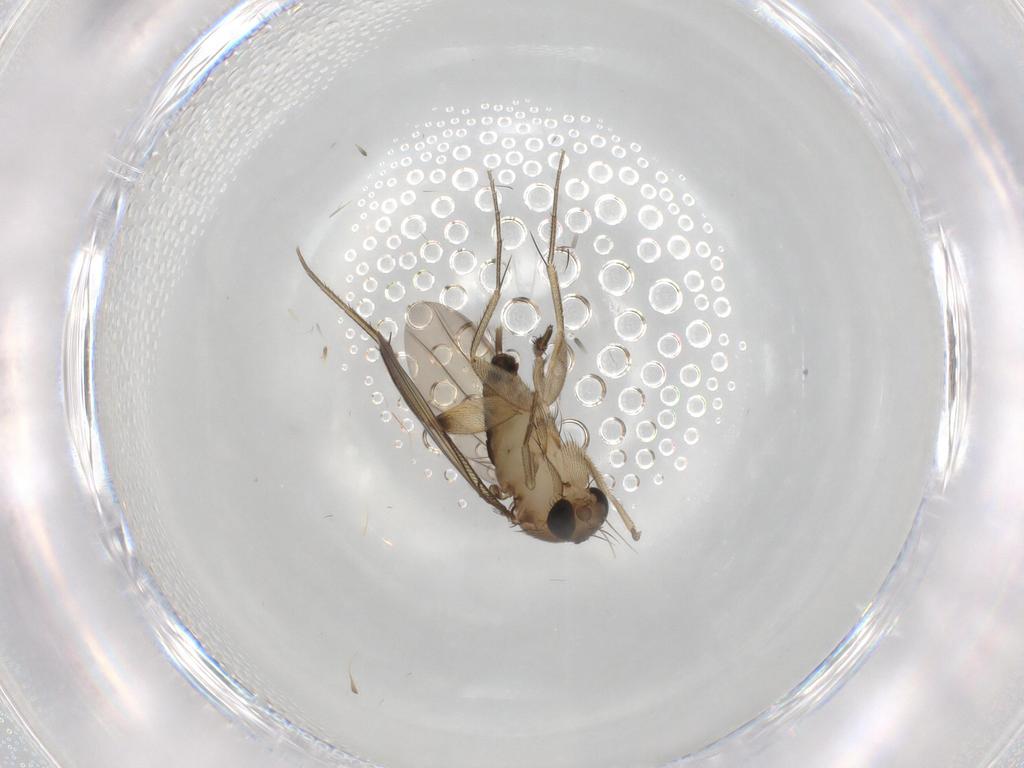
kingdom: Animalia
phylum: Arthropoda
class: Insecta
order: Diptera
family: Phoridae
